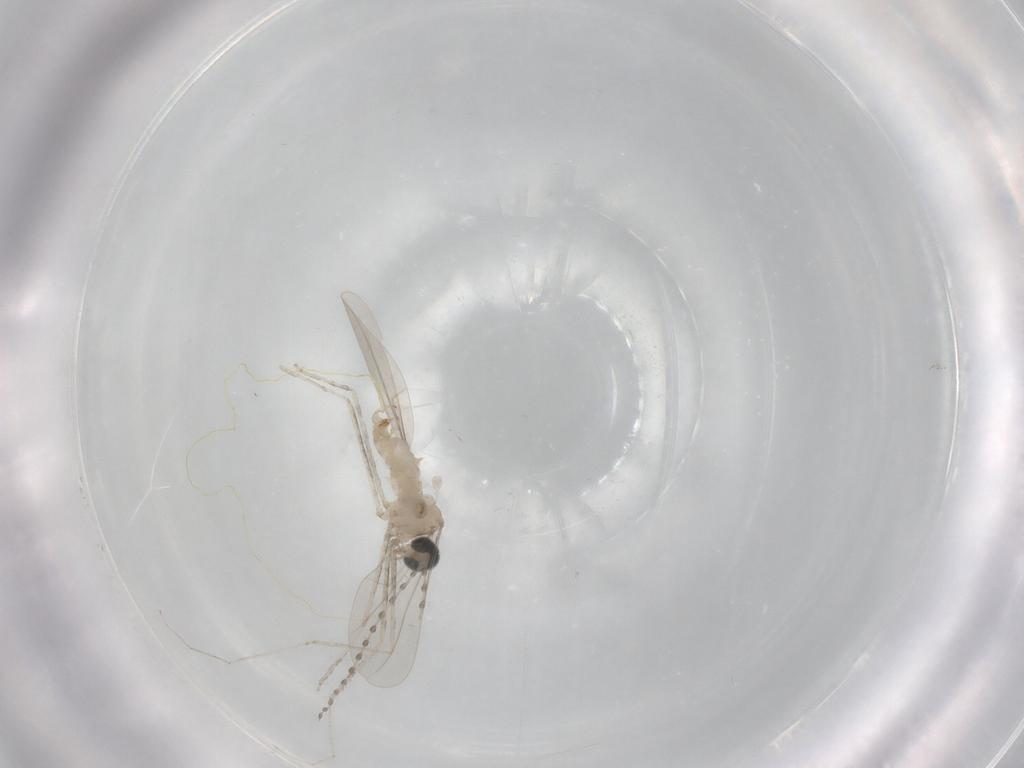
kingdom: Animalia
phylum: Arthropoda
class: Insecta
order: Diptera
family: Cecidomyiidae
